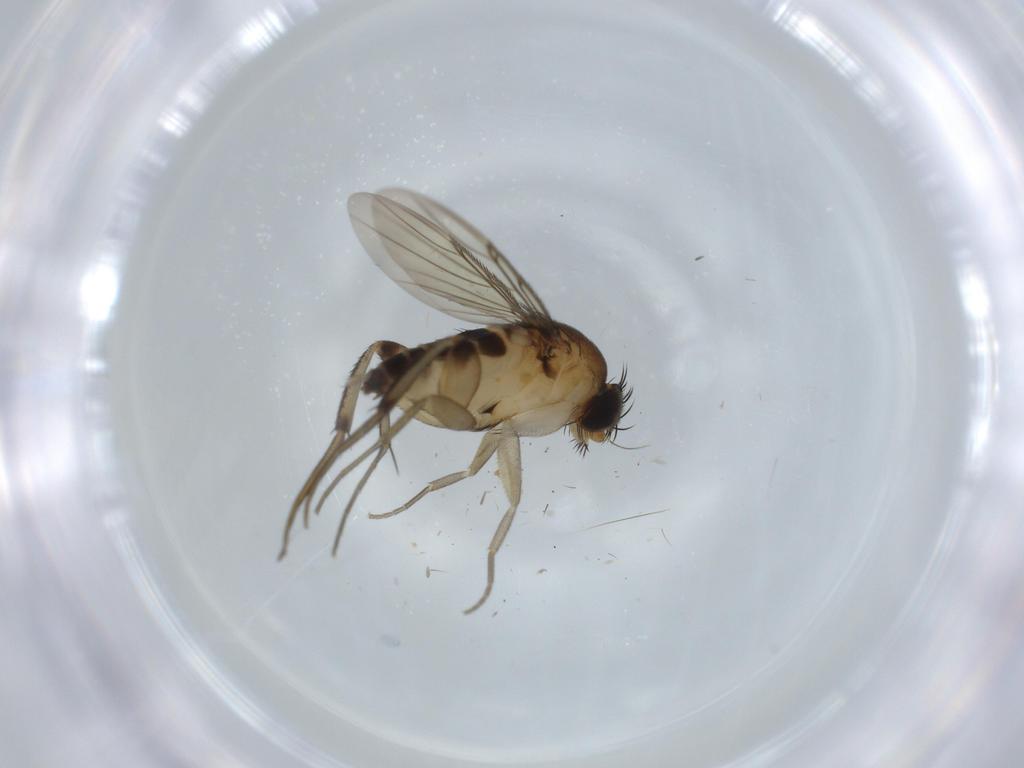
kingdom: Animalia
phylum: Arthropoda
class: Insecta
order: Diptera
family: Phoridae
